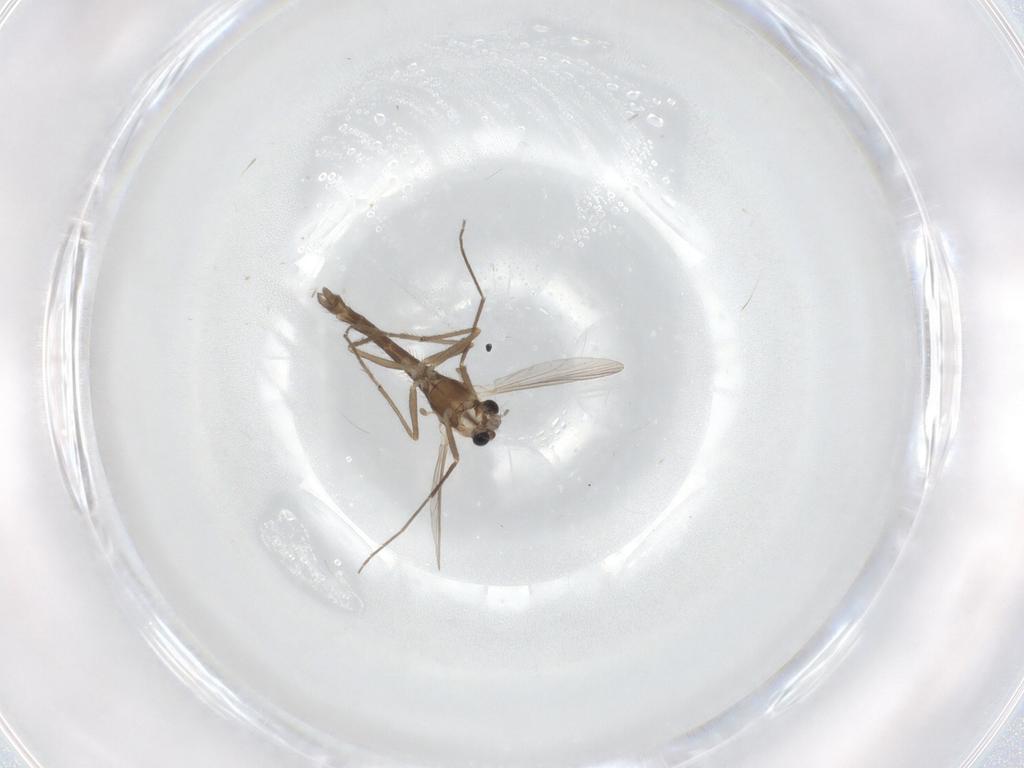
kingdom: Animalia
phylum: Arthropoda
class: Insecta
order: Diptera
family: Chironomidae
